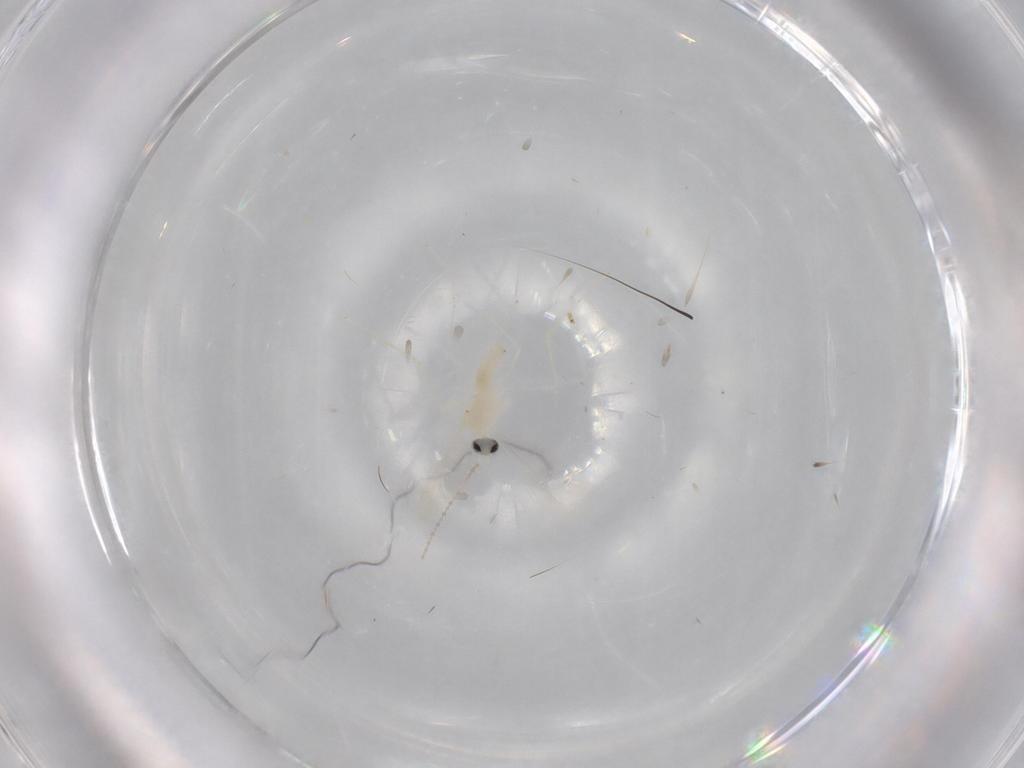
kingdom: Animalia
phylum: Arthropoda
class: Insecta
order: Diptera
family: Cecidomyiidae
